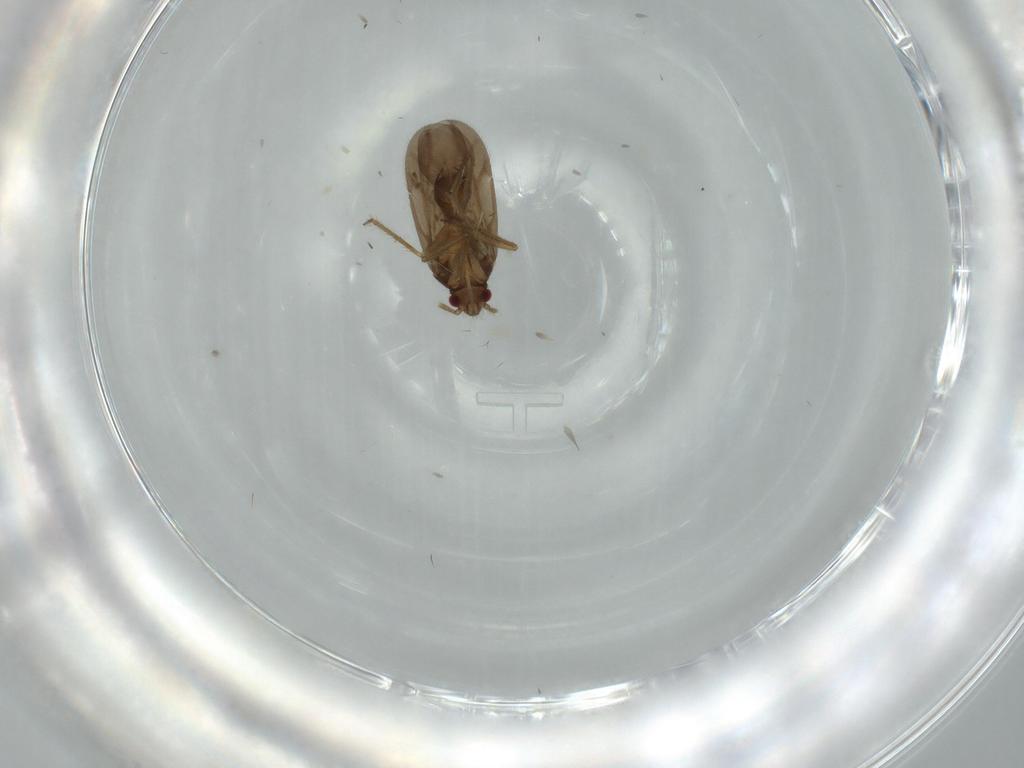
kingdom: Animalia
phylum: Arthropoda
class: Insecta
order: Hemiptera
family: Ceratocombidae
